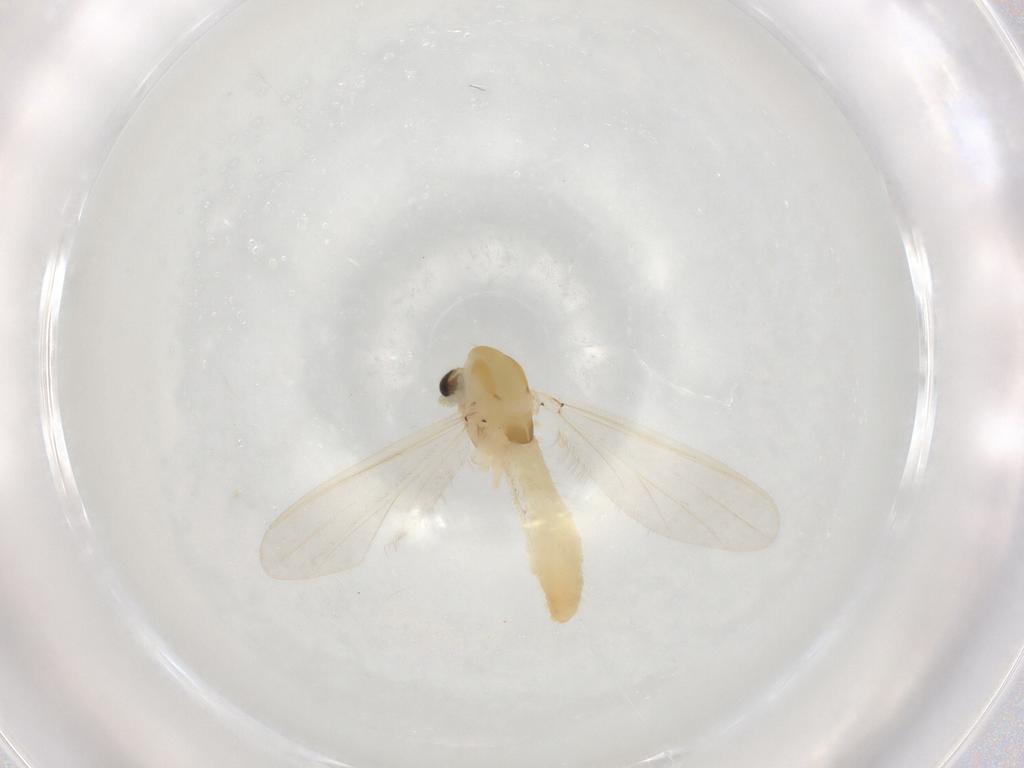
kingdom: Animalia
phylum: Arthropoda
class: Insecta
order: Diptera
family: Chironomidae
